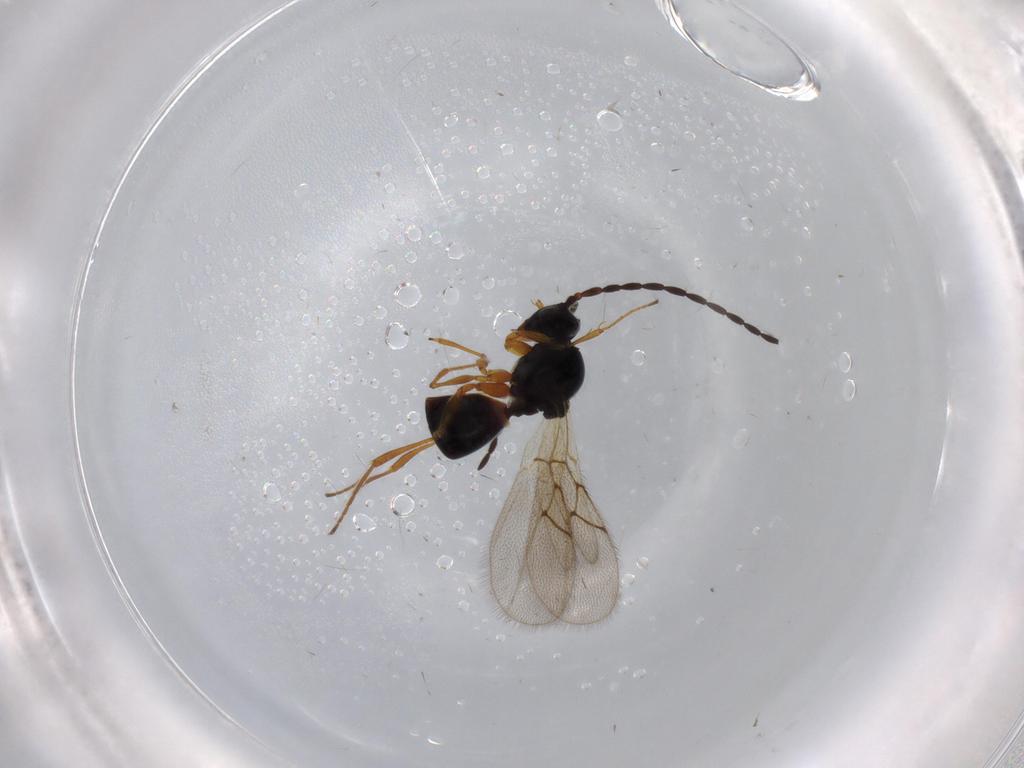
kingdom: Animalia
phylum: Arthropoda
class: Insecta
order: Hymenoptera
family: Figitidae
